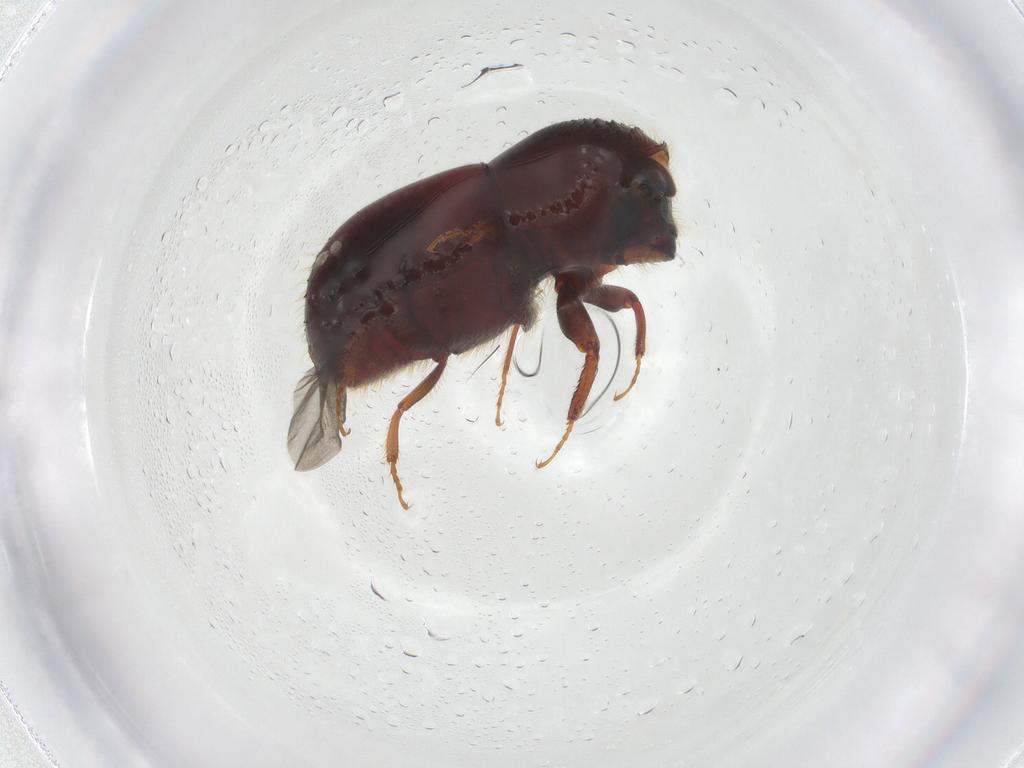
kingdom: Animalia
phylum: Arthropoda
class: Insecta
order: Coleoptera
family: Curculionidae
